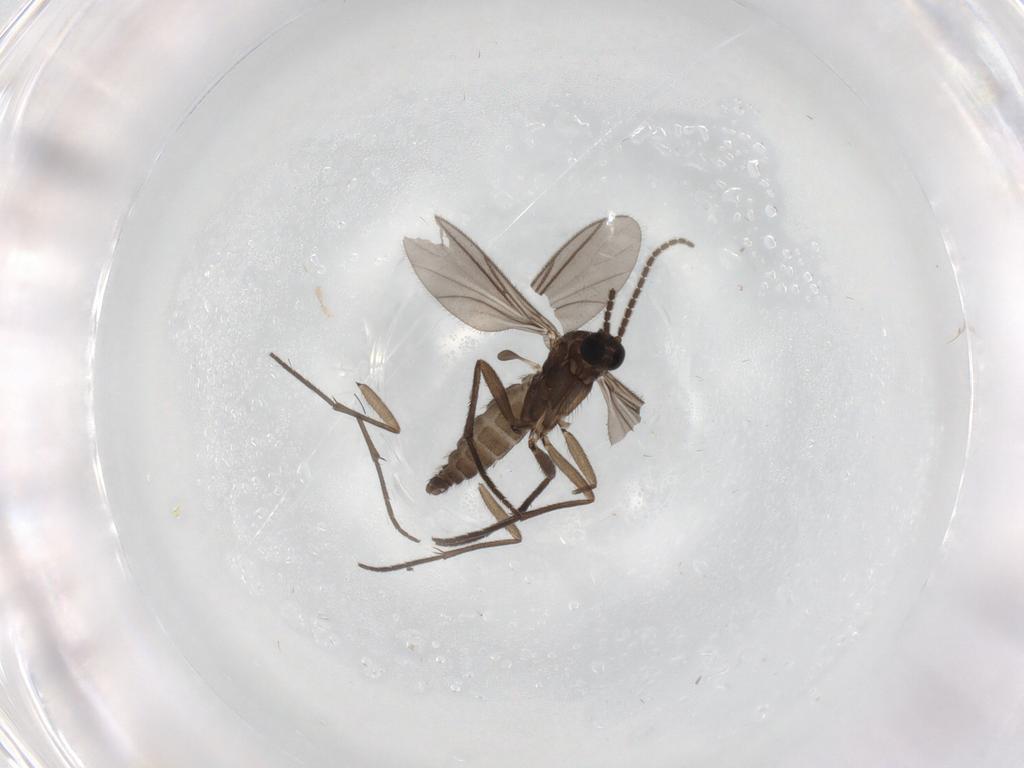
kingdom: Animalia
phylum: Arthropoda
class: Insecta
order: Diptera
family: Sciaridae
